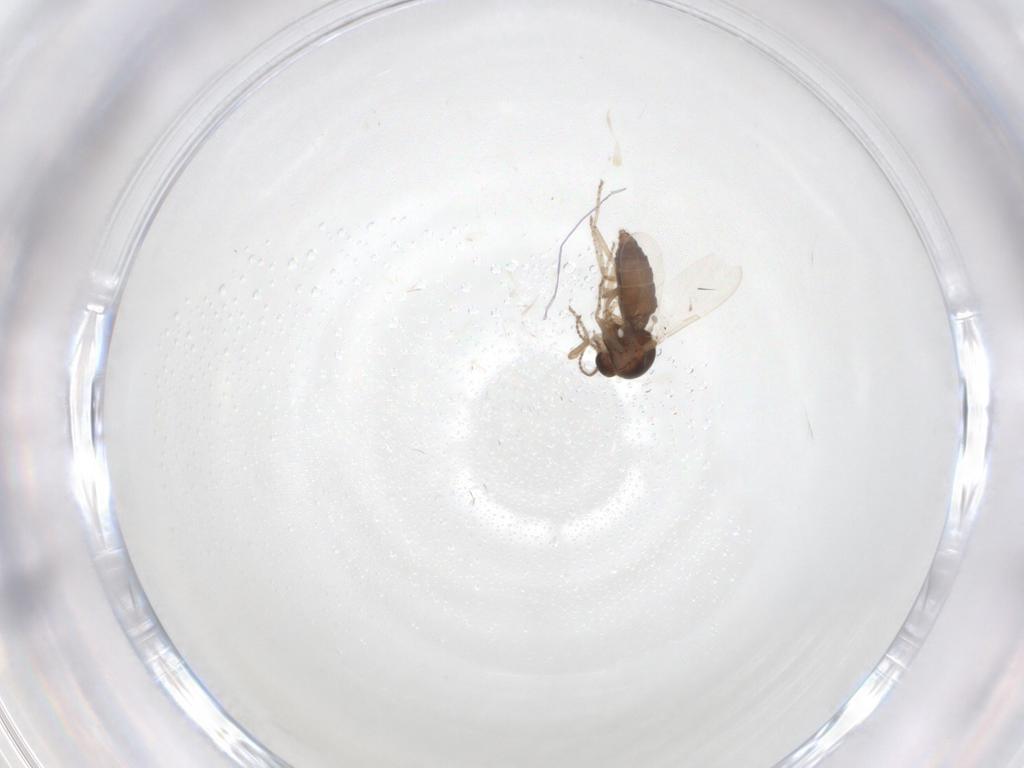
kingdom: Animalia
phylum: Arthropoda
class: Insecta
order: Diptera
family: Ceratopogonidae
